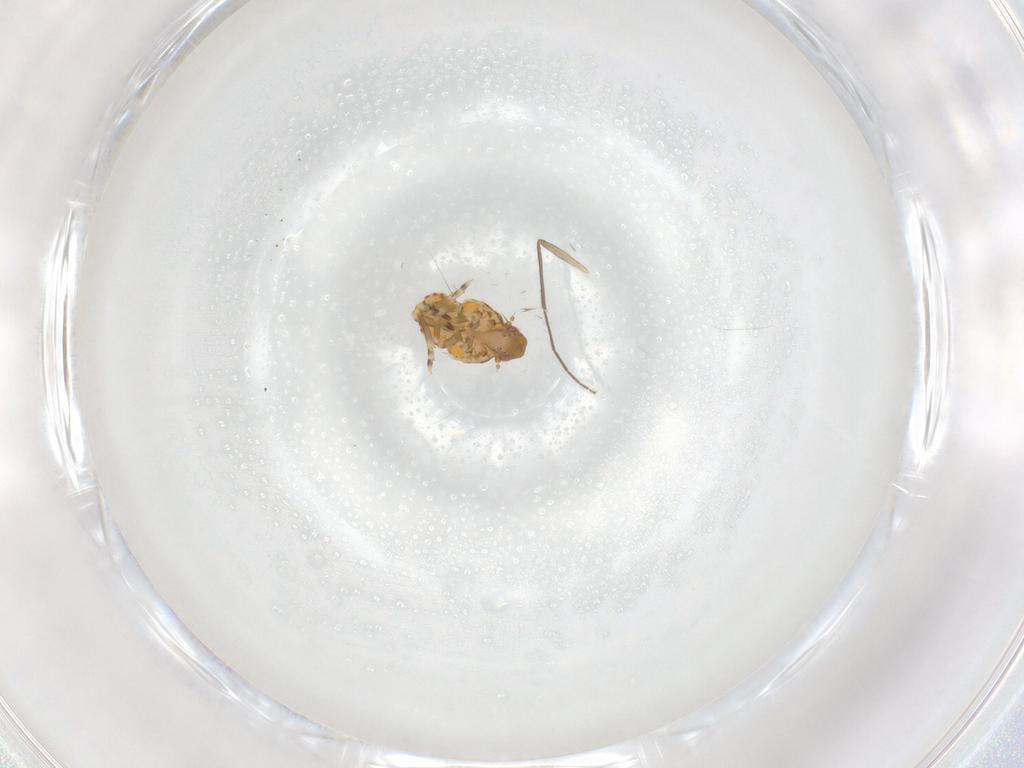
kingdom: Animalia
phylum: Arthropoda
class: Insecta
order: Hemiptera
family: Flatidae
